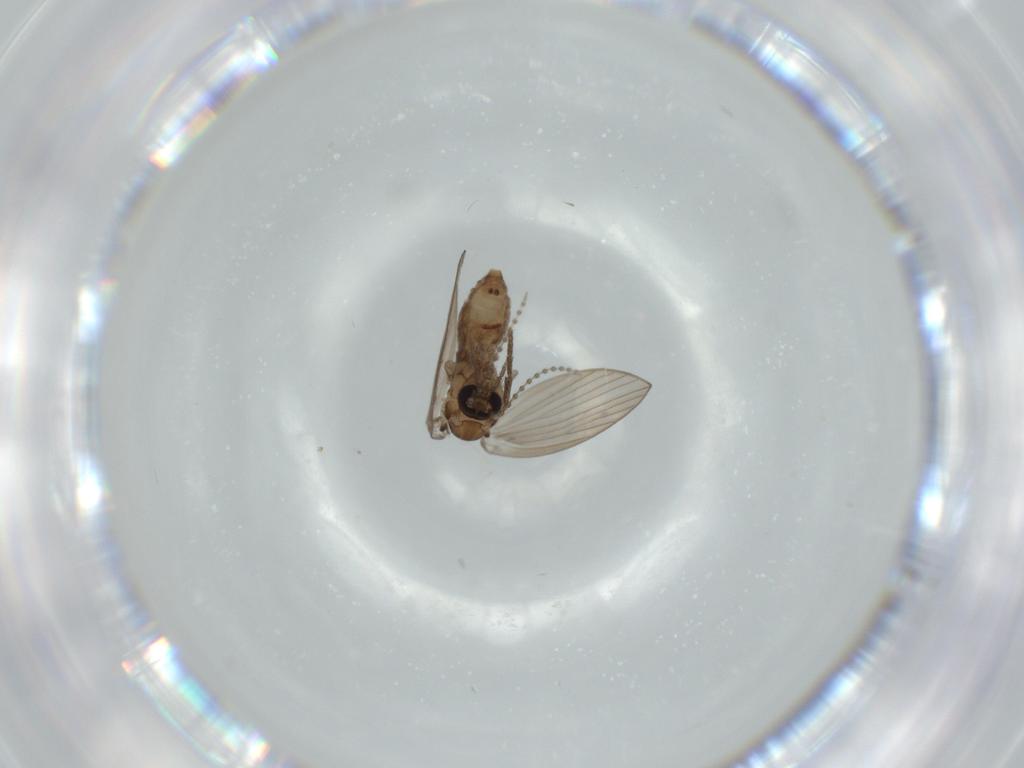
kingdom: Animalia
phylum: Arthropoda
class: Insecta
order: Diptera
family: Psychodidae
